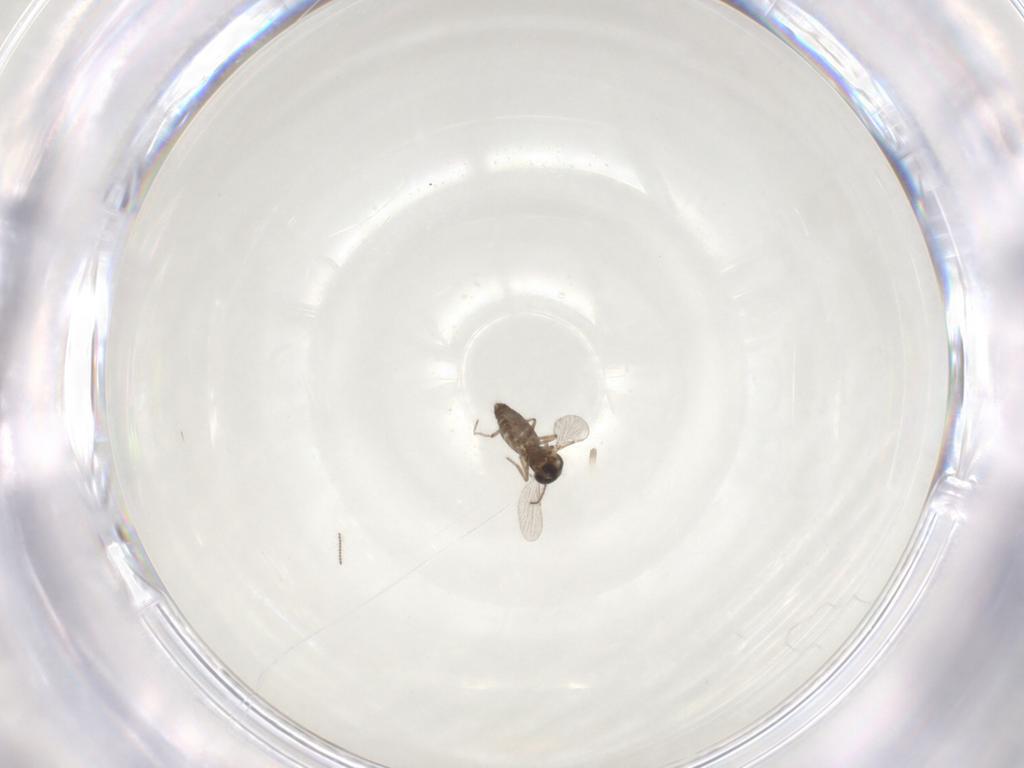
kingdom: Animalia
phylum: Arthropoda
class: Insecta
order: Diptera
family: Ceratopogonidae
